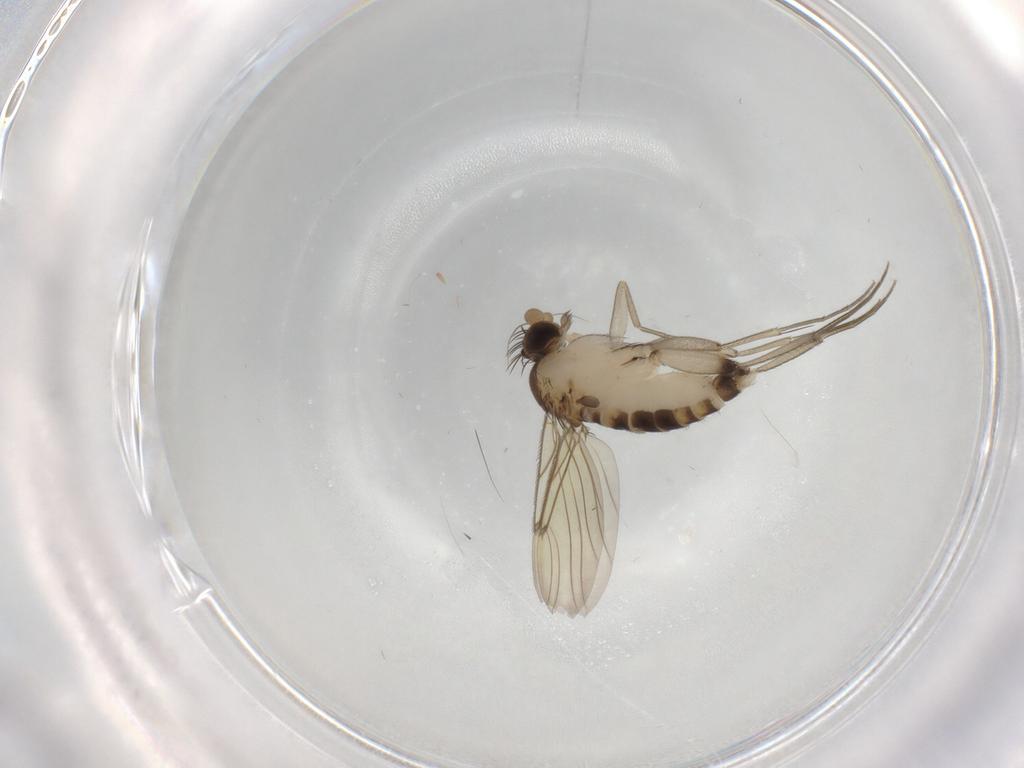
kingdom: Animalia
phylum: Arthropoda
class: Insecta
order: Diptera
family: Phoridae
